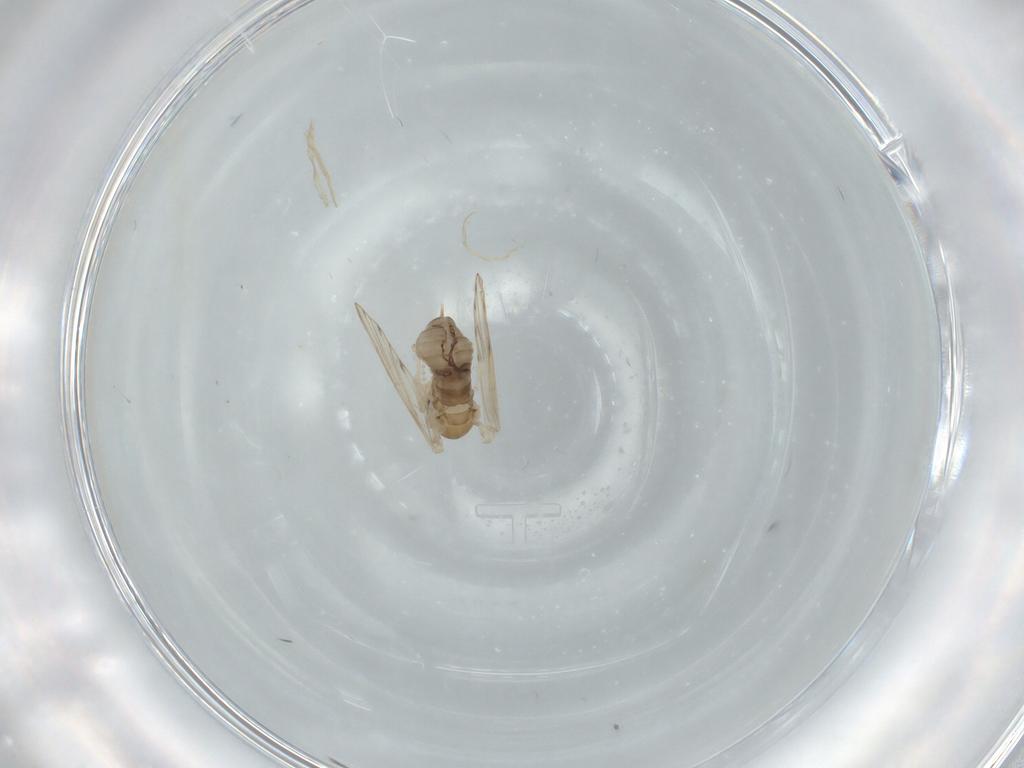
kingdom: Animalia
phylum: Arthropoda
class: Insecta
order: Diptera
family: Psychodidae
